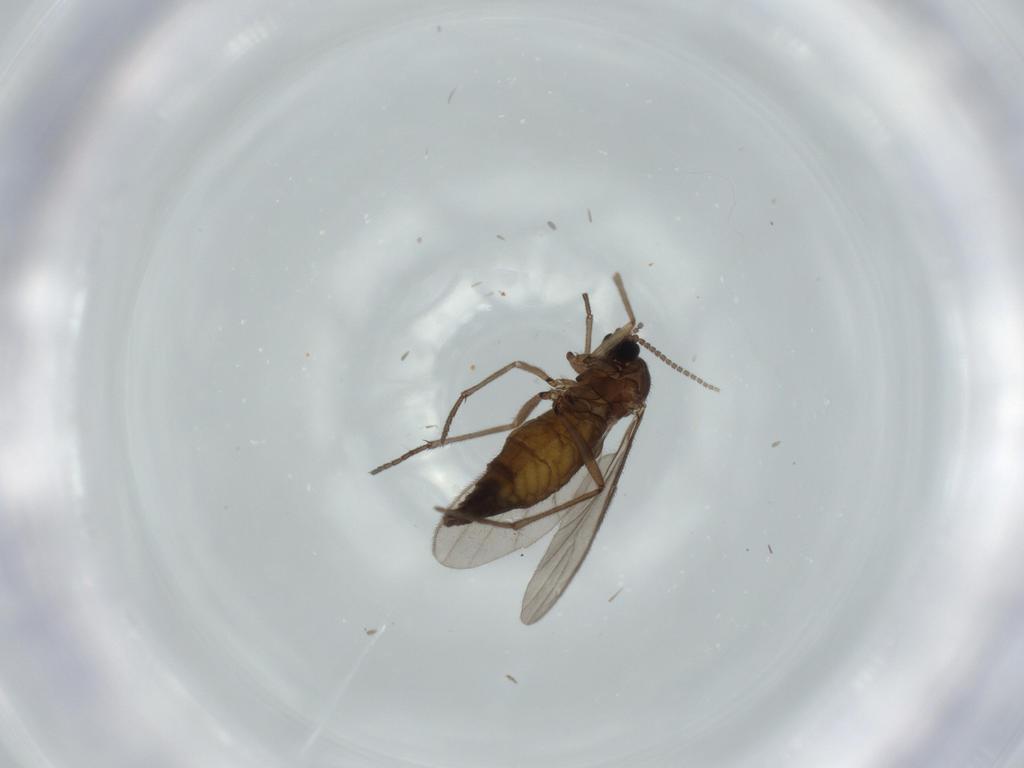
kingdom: Animalia
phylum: Arthropoda
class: Insecta
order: Diptera
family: Sciaridae
